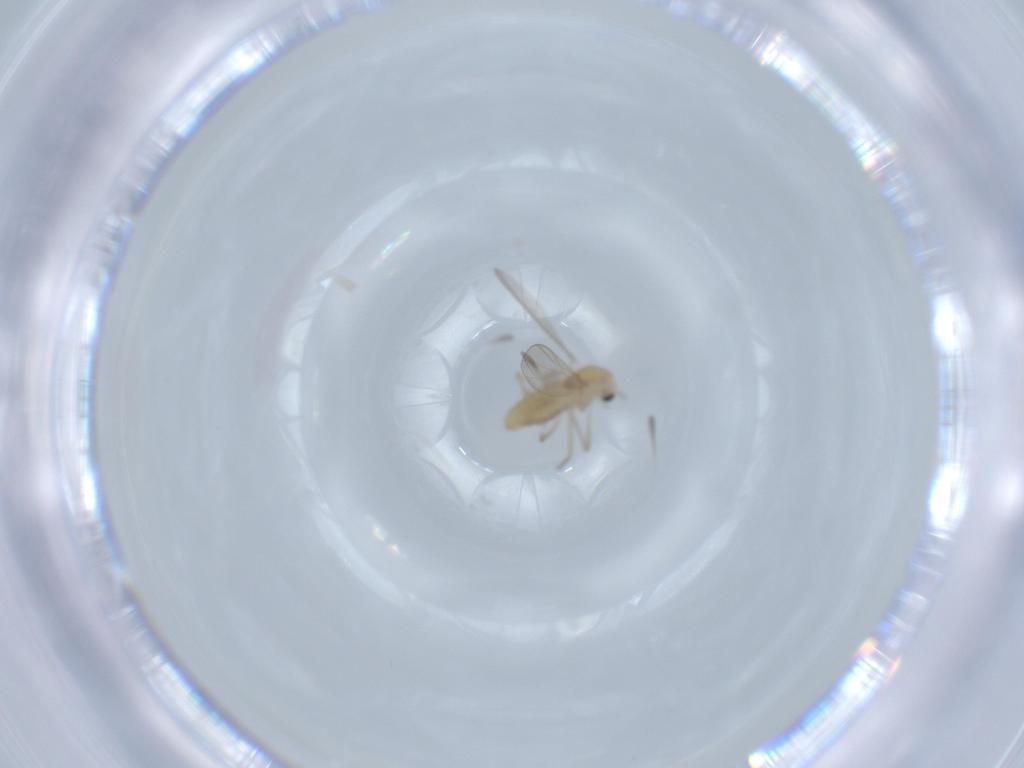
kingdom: Animalia
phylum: Arthropoda
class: Insecta
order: Diptera
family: Chironomidae
